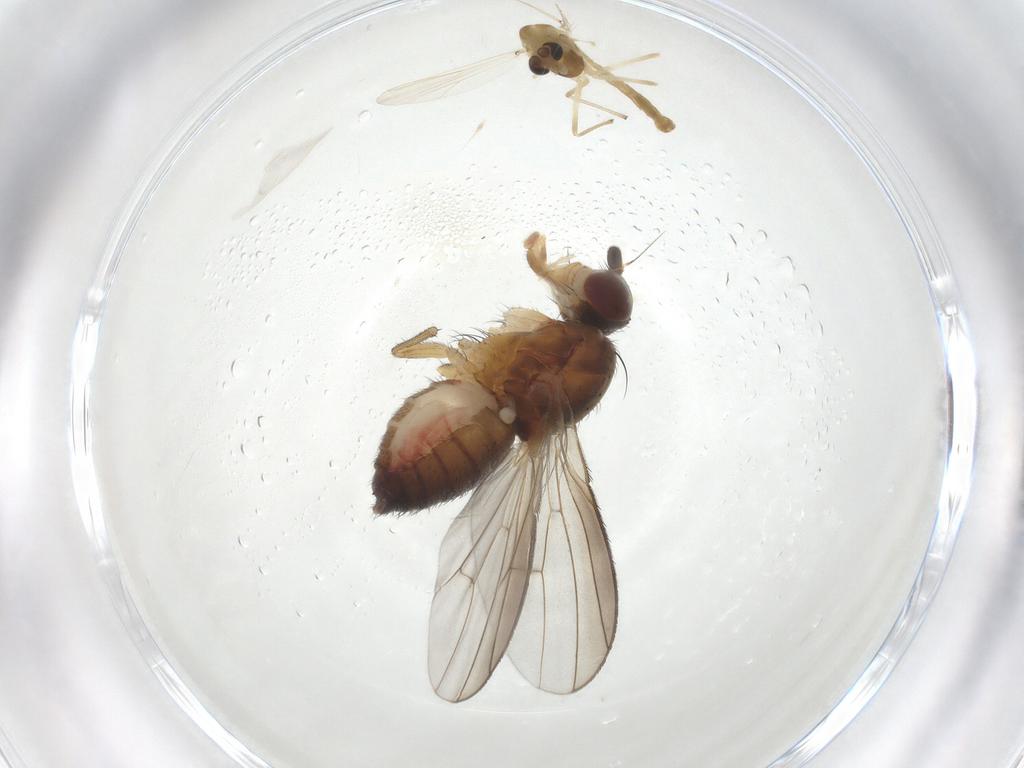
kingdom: Animalia
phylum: Arthropoda
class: Insecta
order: Diptera
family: Heleomyzidae
